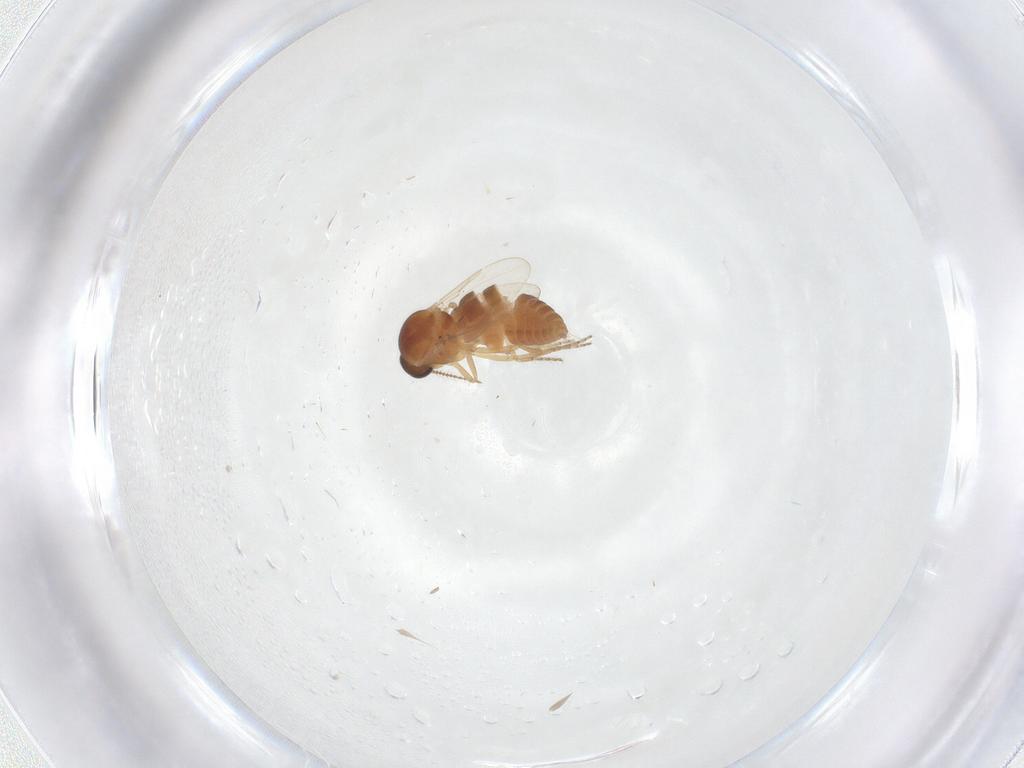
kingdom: Animalia
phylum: Arthropoda
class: Insecta
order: Diptera
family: Ceratopogonidae
